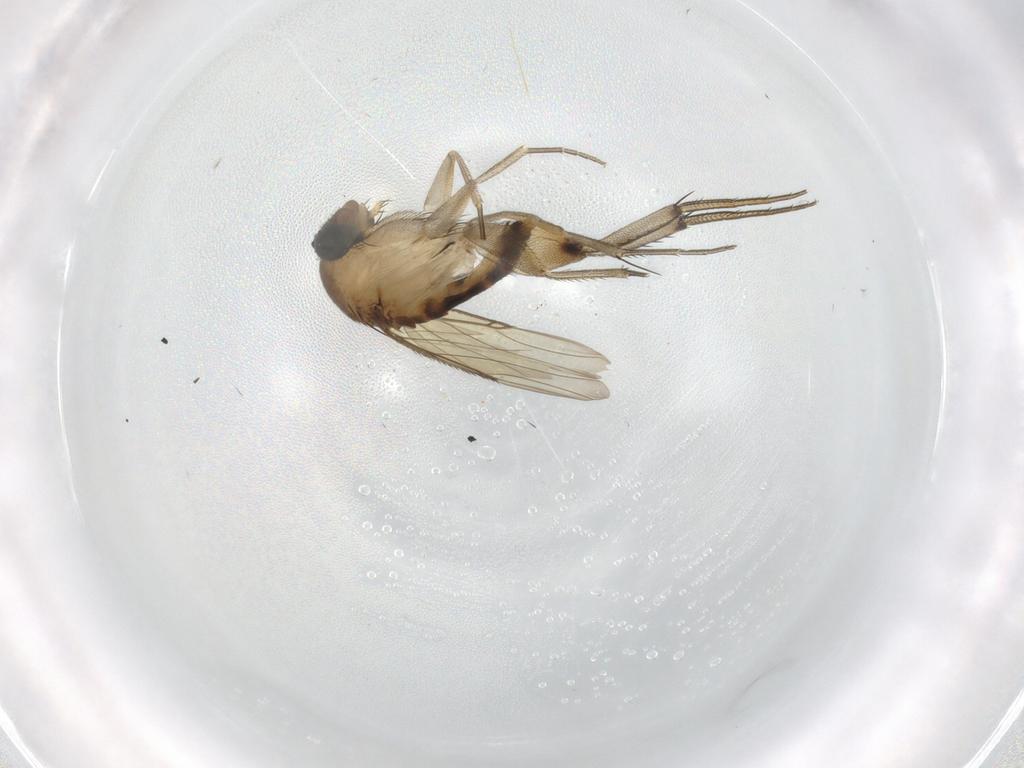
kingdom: Animalia
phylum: Arthropoda
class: Insecta
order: Diptera
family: Phoridae
